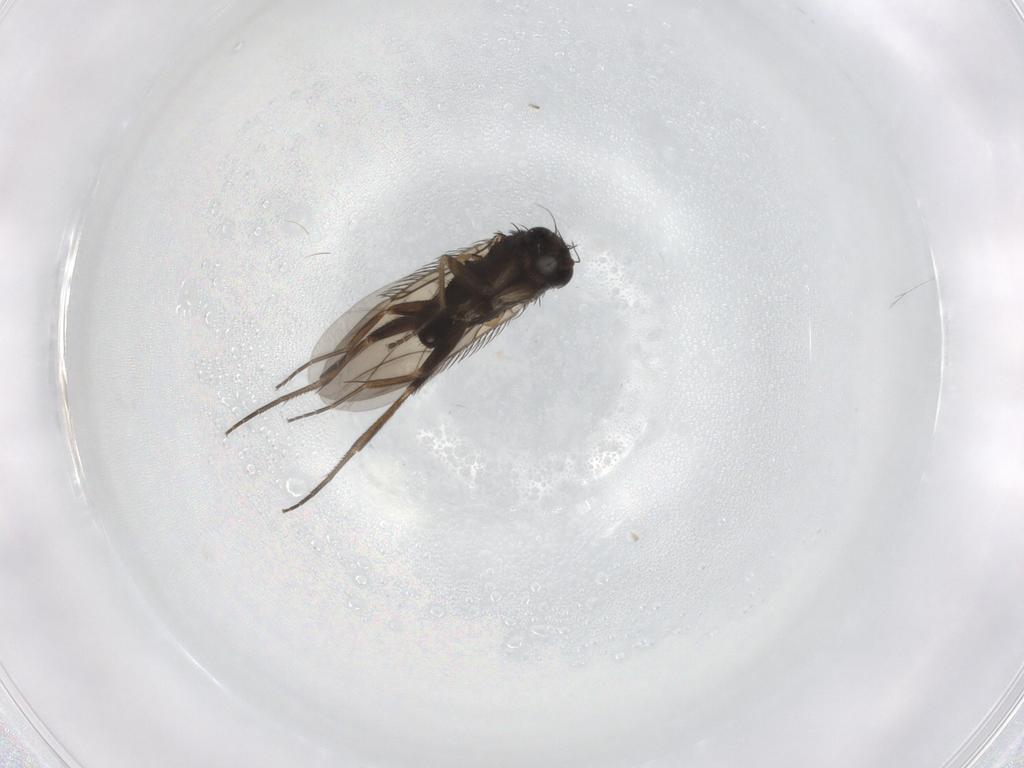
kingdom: Animalia
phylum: Arthropoda
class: Insecta
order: Diptera
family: Phoridae
